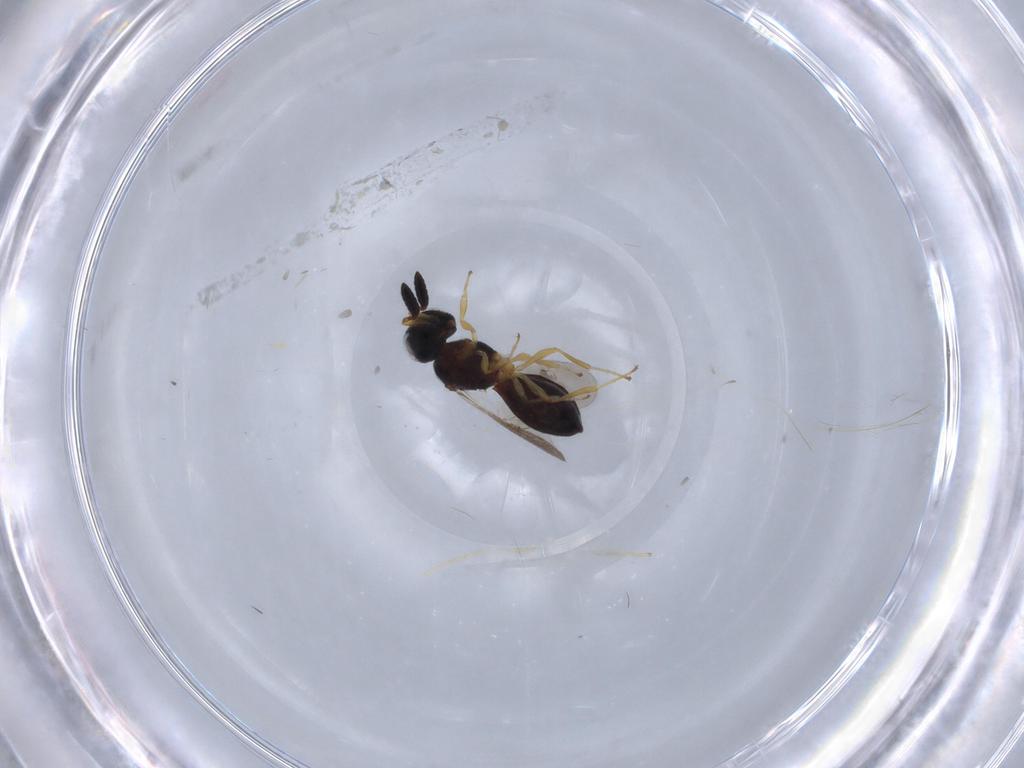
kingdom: Animalia
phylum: Arthropoda
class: Insecta
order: Hymenoptera
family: Scelionidae
